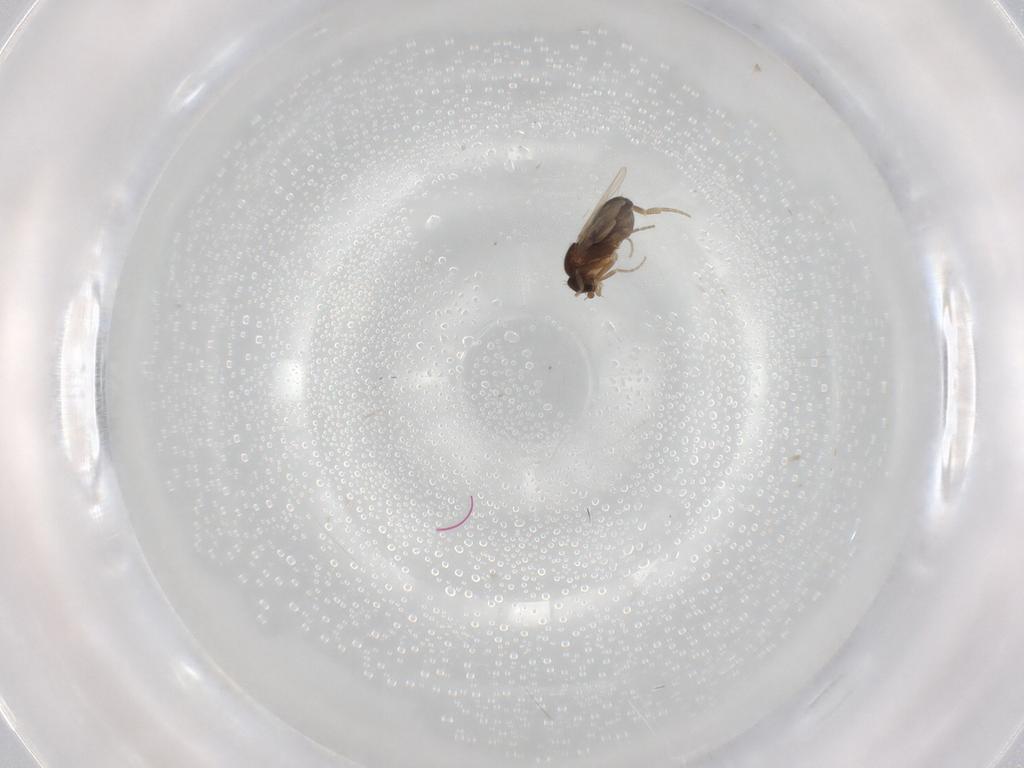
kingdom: Animalia
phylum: Arthropoda
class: Insecta
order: Diptera
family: Phoridae
